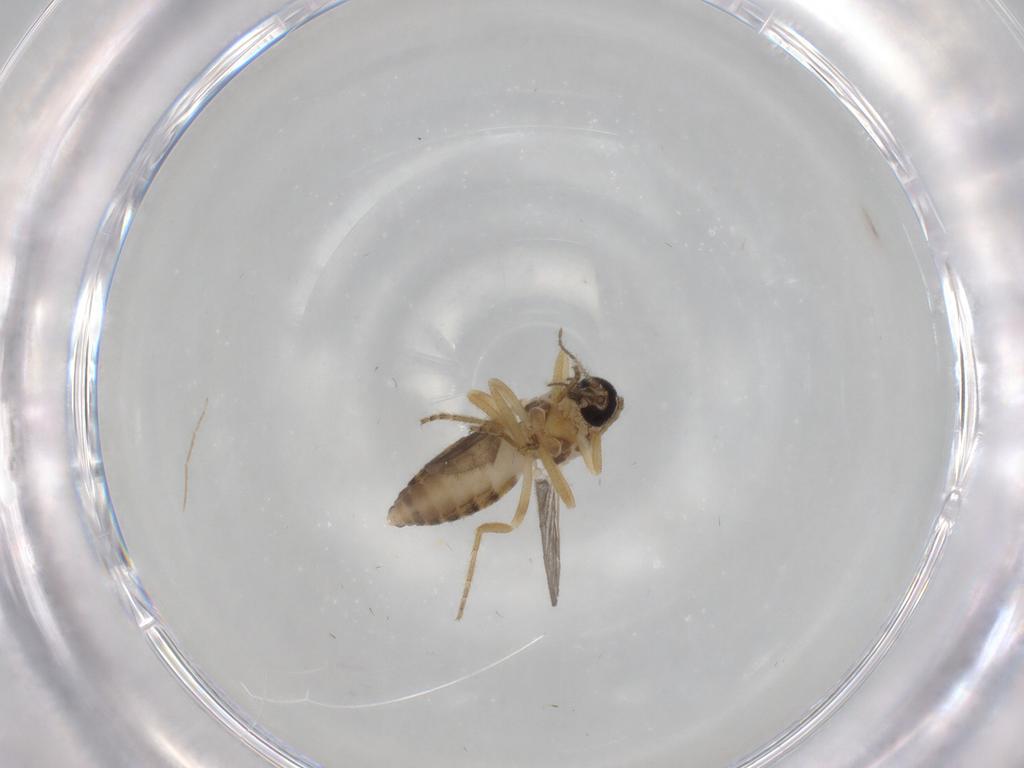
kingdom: Animalia
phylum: Arthropoda
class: Insecta
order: Diptera
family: Ceratopogonidae
